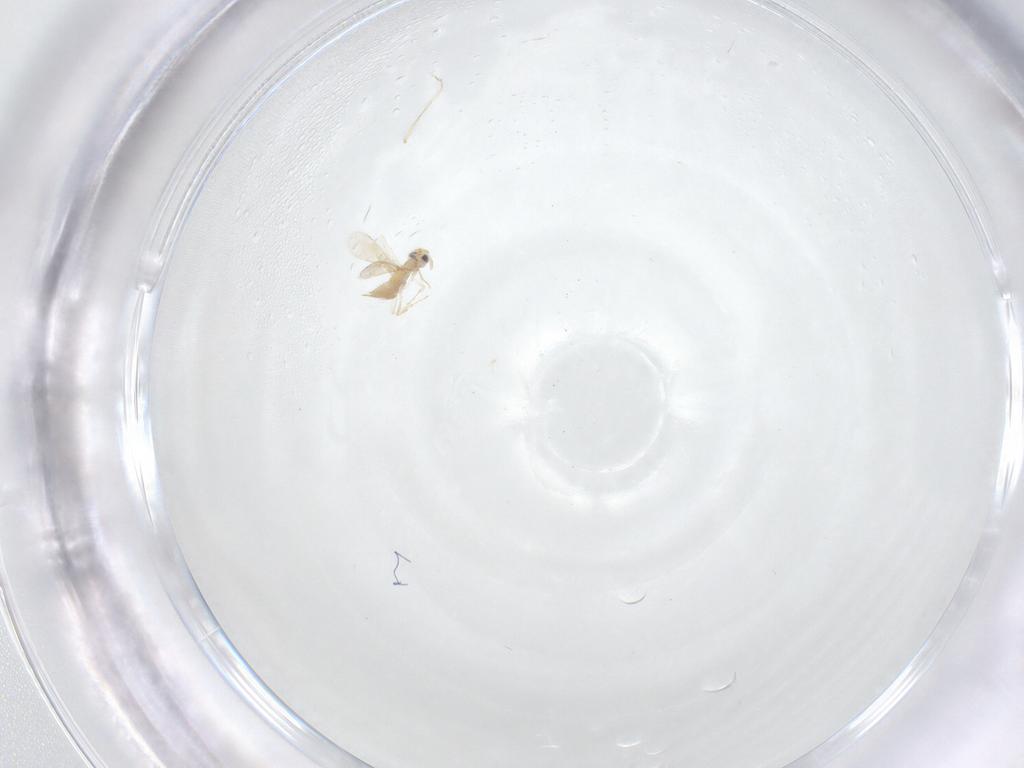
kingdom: Animalia
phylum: Arthropoda
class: Insecta
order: Hymenoptera
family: Aphelinidae
